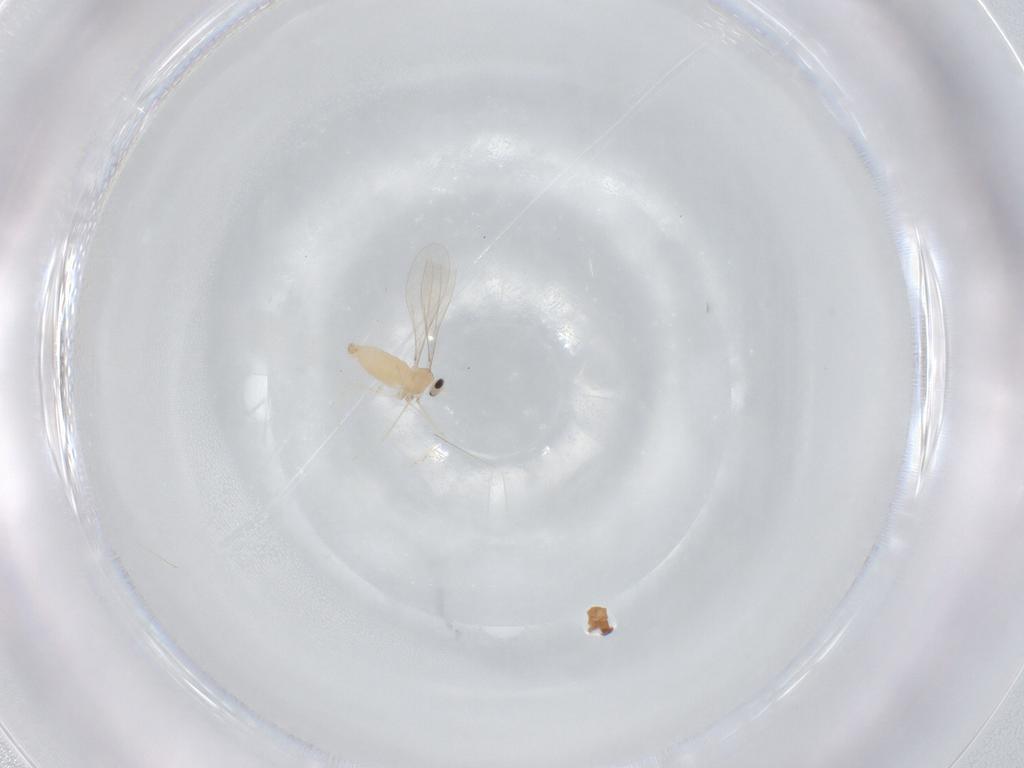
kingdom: Animalia
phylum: Arthropoda
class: Insecta
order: Diptera
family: Cecidomyiidae
